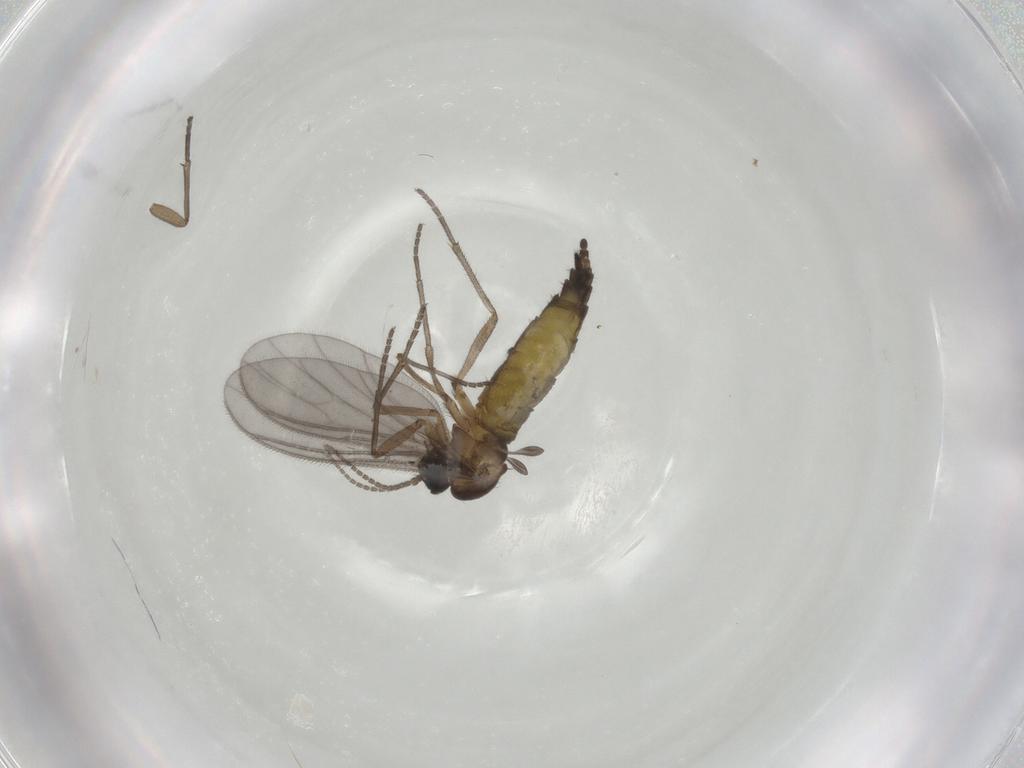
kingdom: Animalia
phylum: Arthropoda
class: Insecta
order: Diptera
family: Sciaridae
